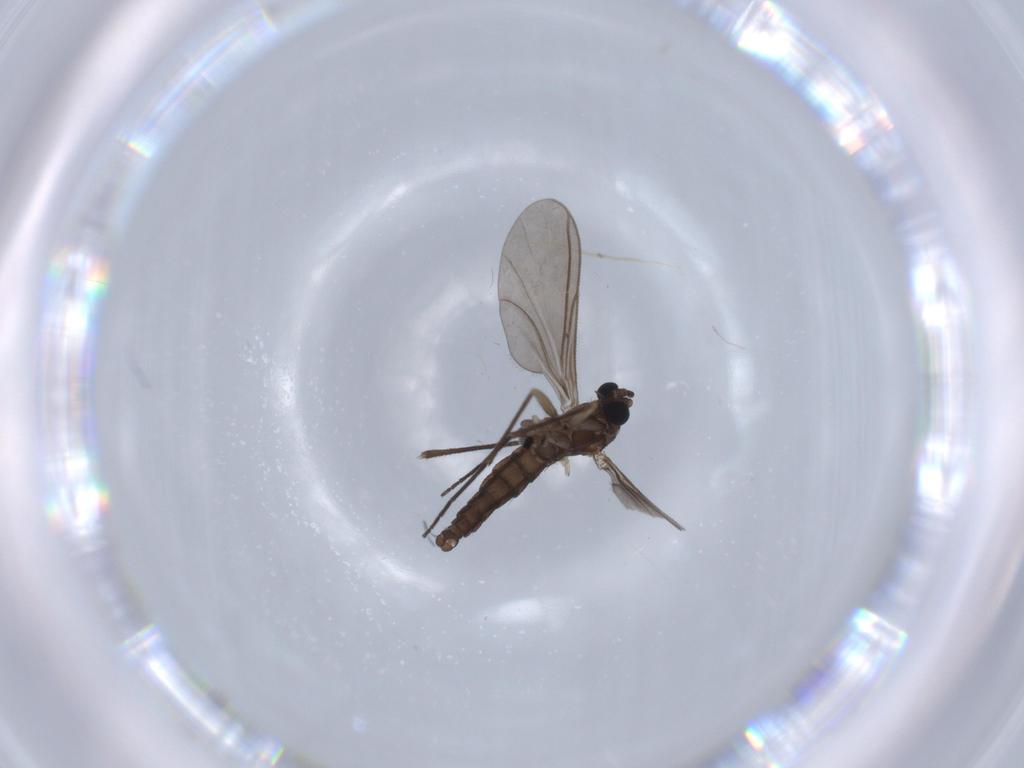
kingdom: Animalia
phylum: Arthropoda
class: Insecta
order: Diptera
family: Sciaridae
